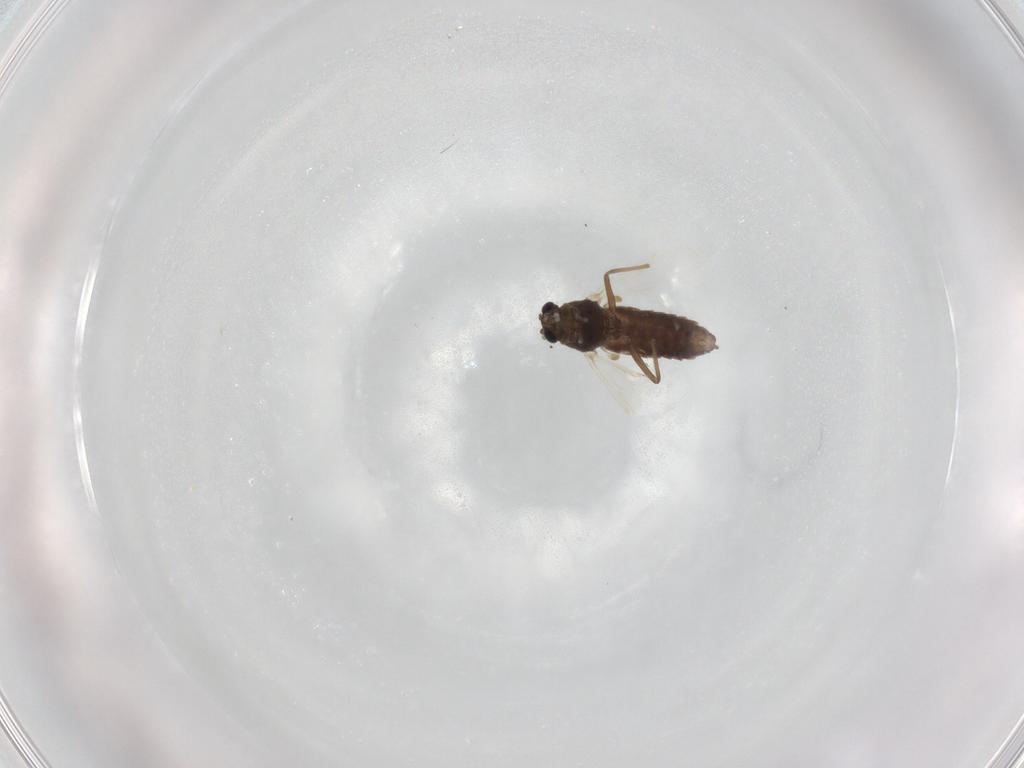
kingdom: Animalia
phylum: Arthropoda
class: Insecta
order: Diptera
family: Chironomidae
